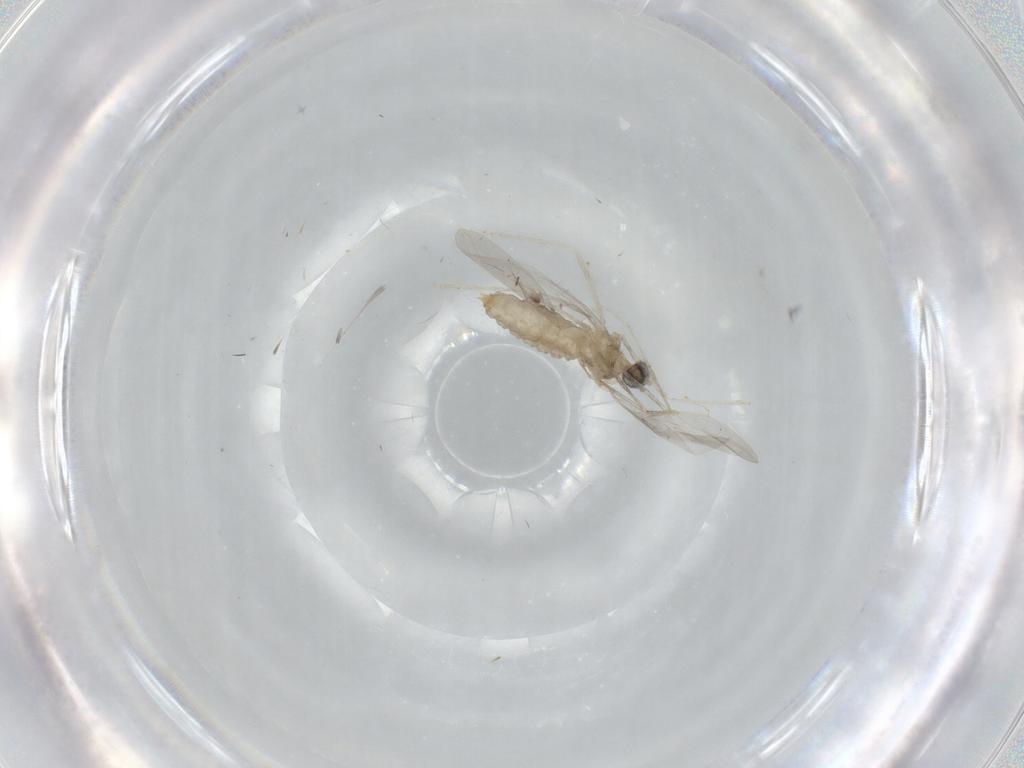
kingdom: Animalia
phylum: Arthropoda
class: Insecta
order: Diptera
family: Cecidomyiidae
